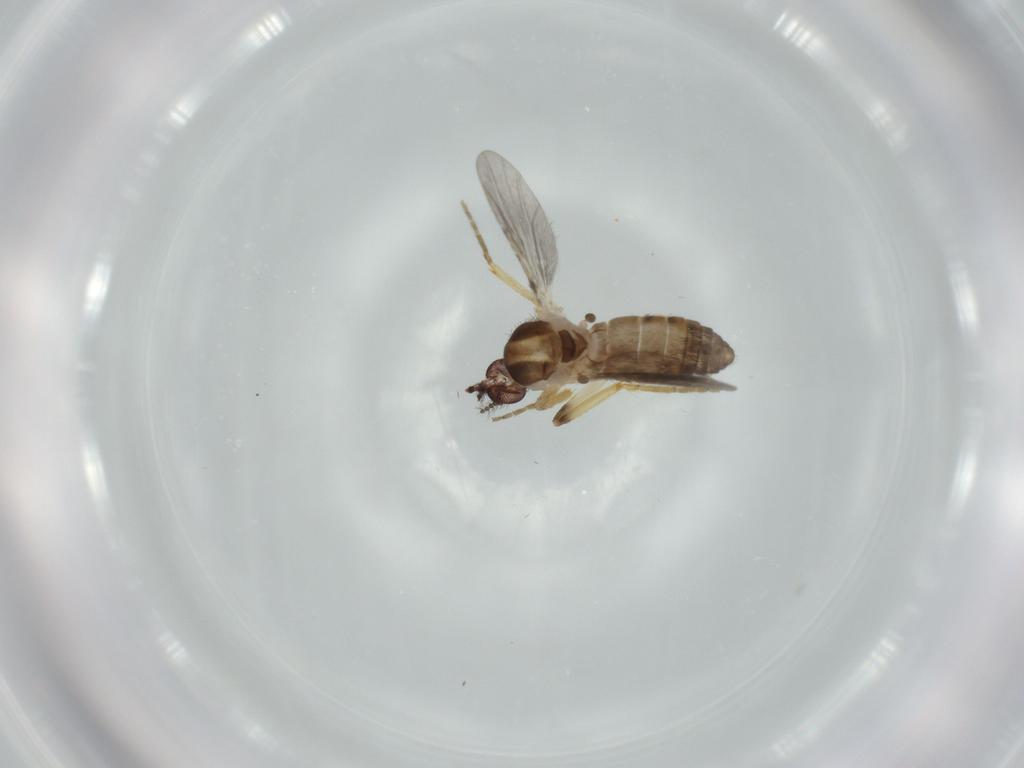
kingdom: Animalia
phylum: Arthropoda
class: Insecta
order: Diptera
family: Ceratopogonidae
